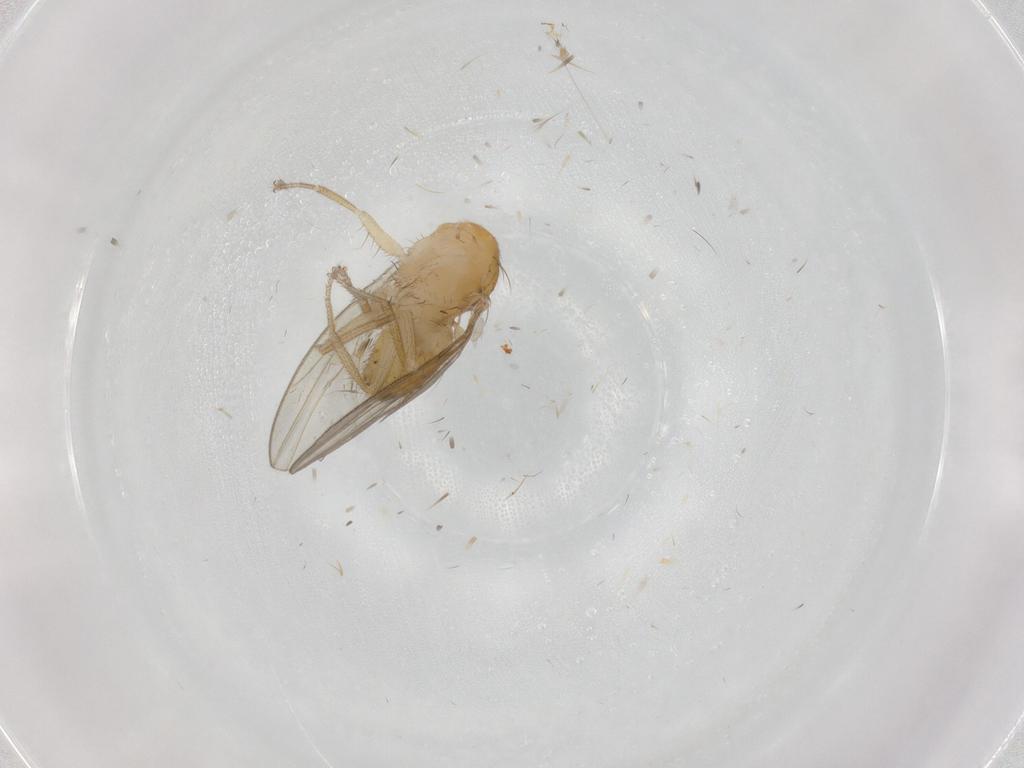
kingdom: Animalia
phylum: Arthropoda
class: Insecta
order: Diptera
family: Drosophilidae
